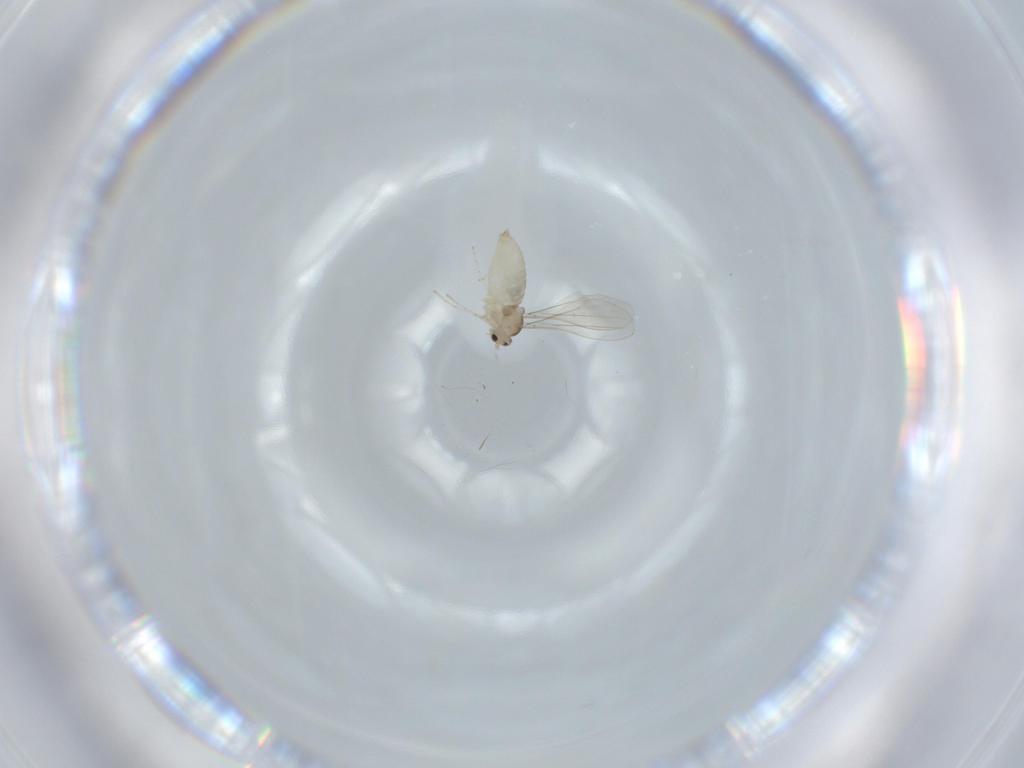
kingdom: Animalia
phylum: Arthropoda
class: Insecta
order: Diptera
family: Cecidomyiidae
